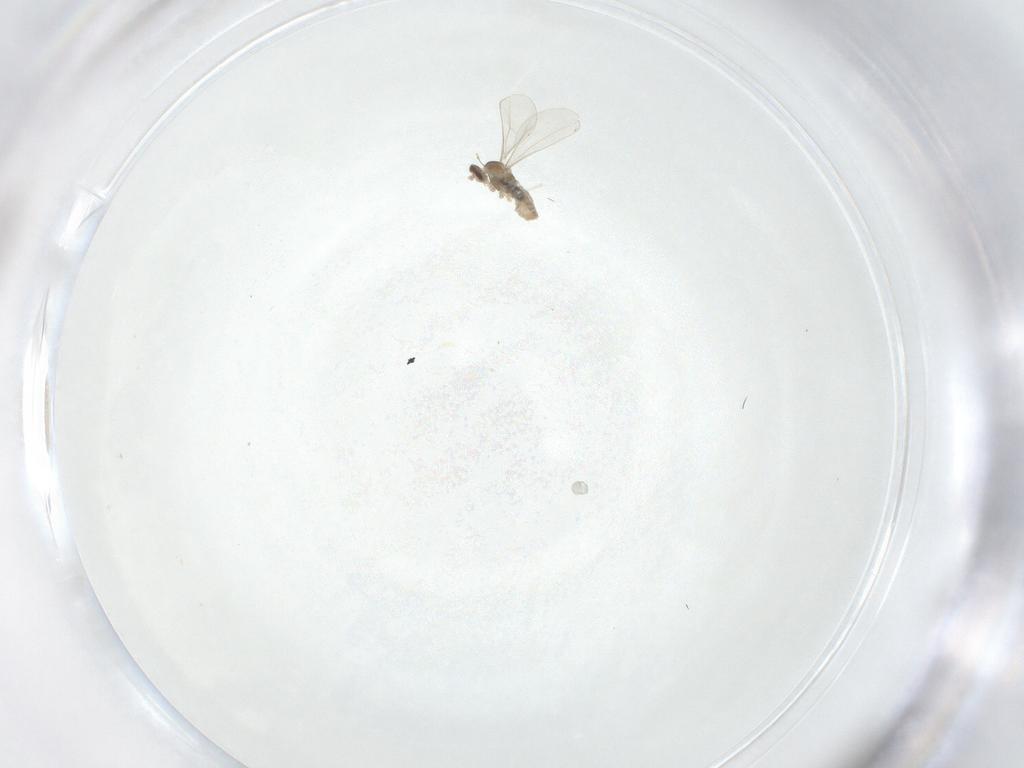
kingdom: Animalia
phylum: Arthropoda
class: Insecta
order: Diptera
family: Cecidomyiidae
